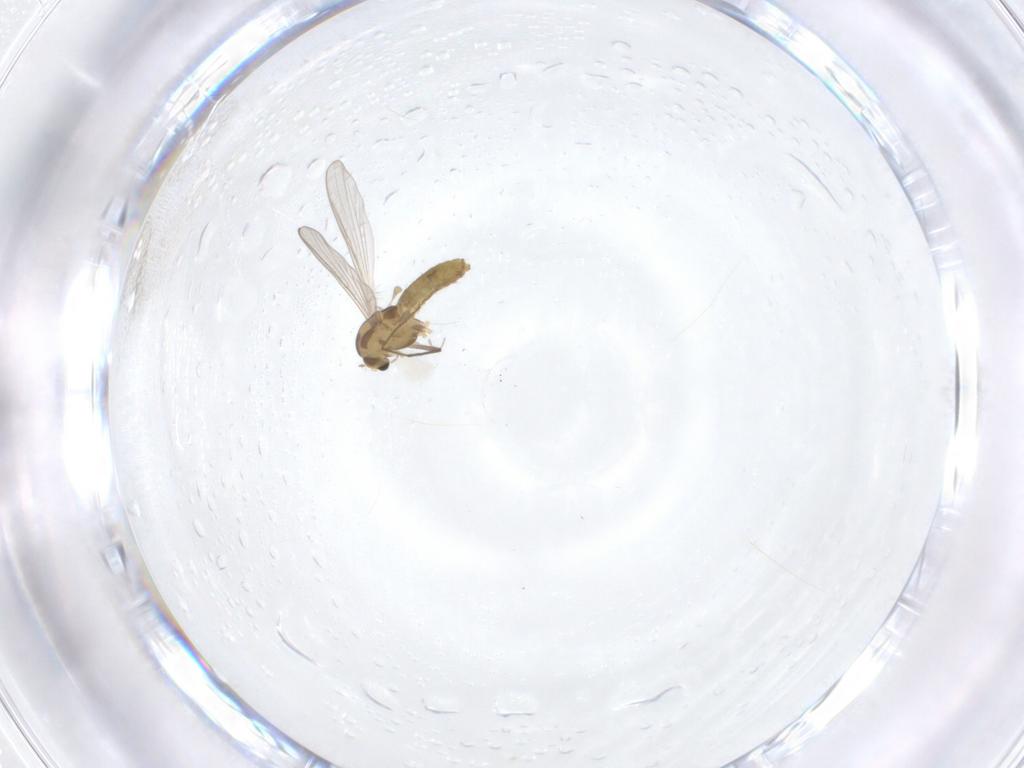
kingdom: Animalia
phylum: Arthropoda
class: Insecta
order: Diptera
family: Chironomidae
